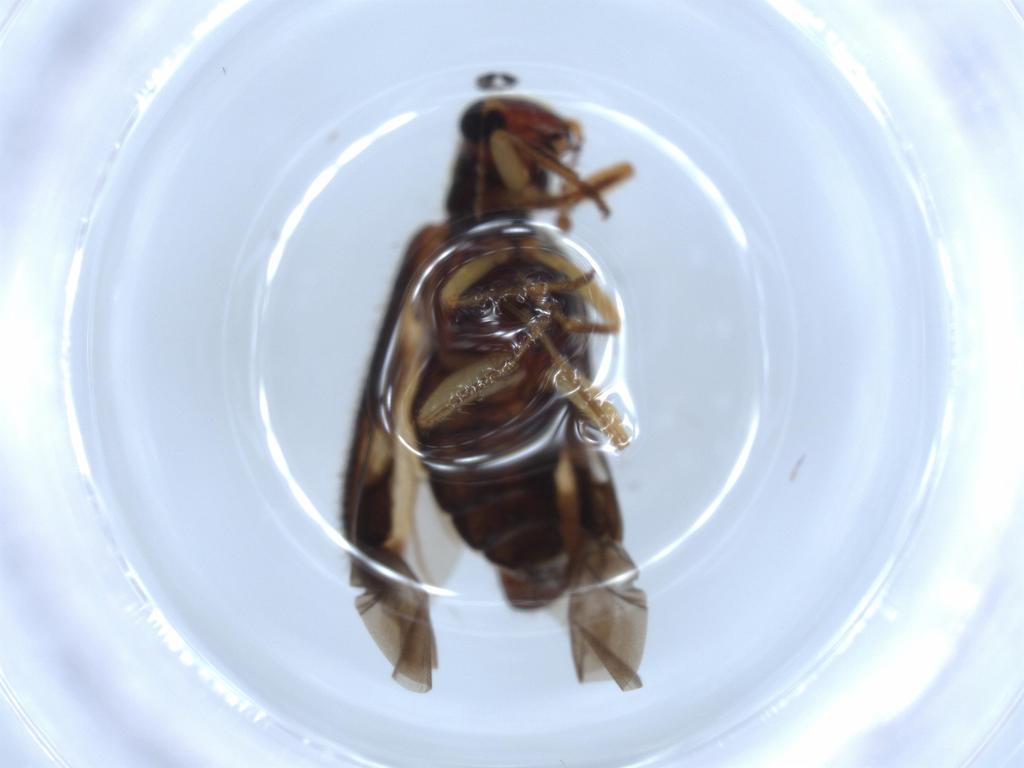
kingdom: Animalia
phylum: Arthropoda
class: Insecta
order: Coleoptera
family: Cleridae
